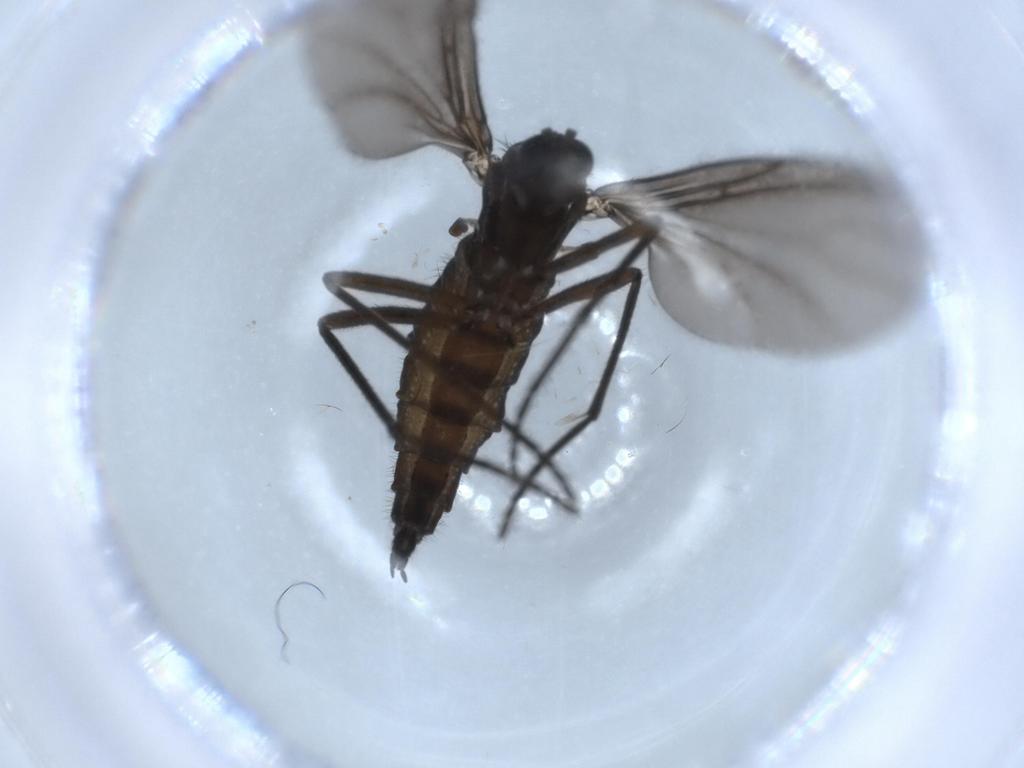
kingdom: Animalia
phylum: Arthropoda
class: Insecta
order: Diptera
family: Sciaridae
